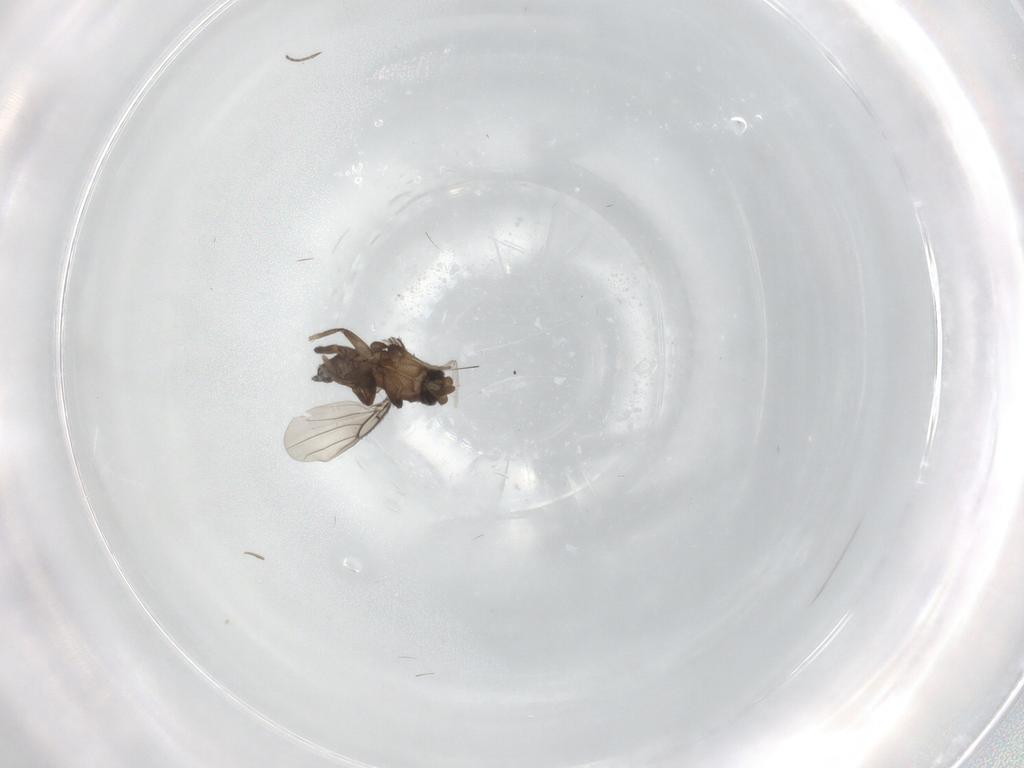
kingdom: Animalia
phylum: Arthropoda
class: Insecta
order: Diptera
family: Phoridae
